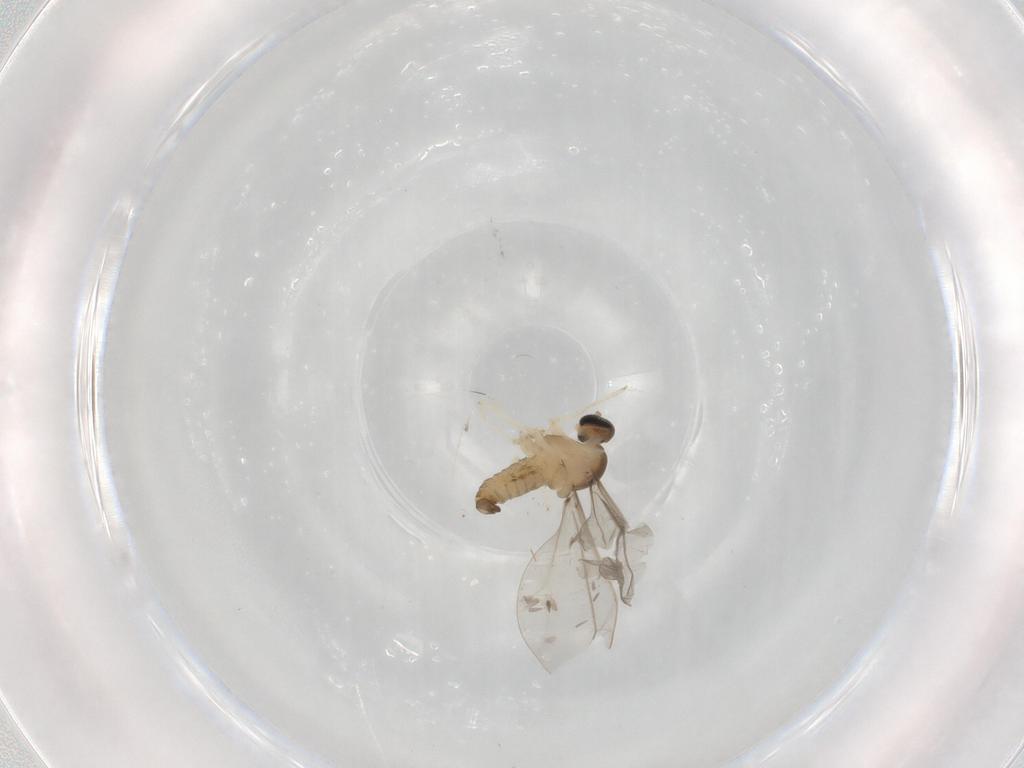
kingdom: Animalia
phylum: Arthropoda
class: Insecta
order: Diptera
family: Cecidomyiidae
